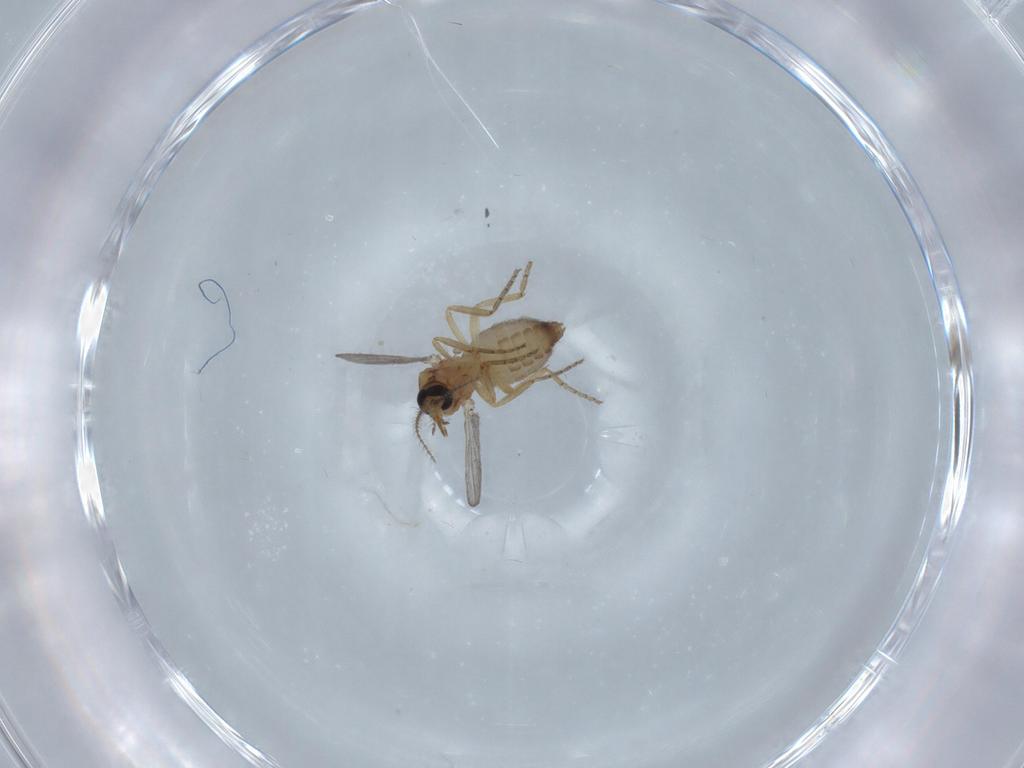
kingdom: Animalia
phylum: Arthropoda
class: Insecta
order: Diptera
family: Ceratopogonidae
